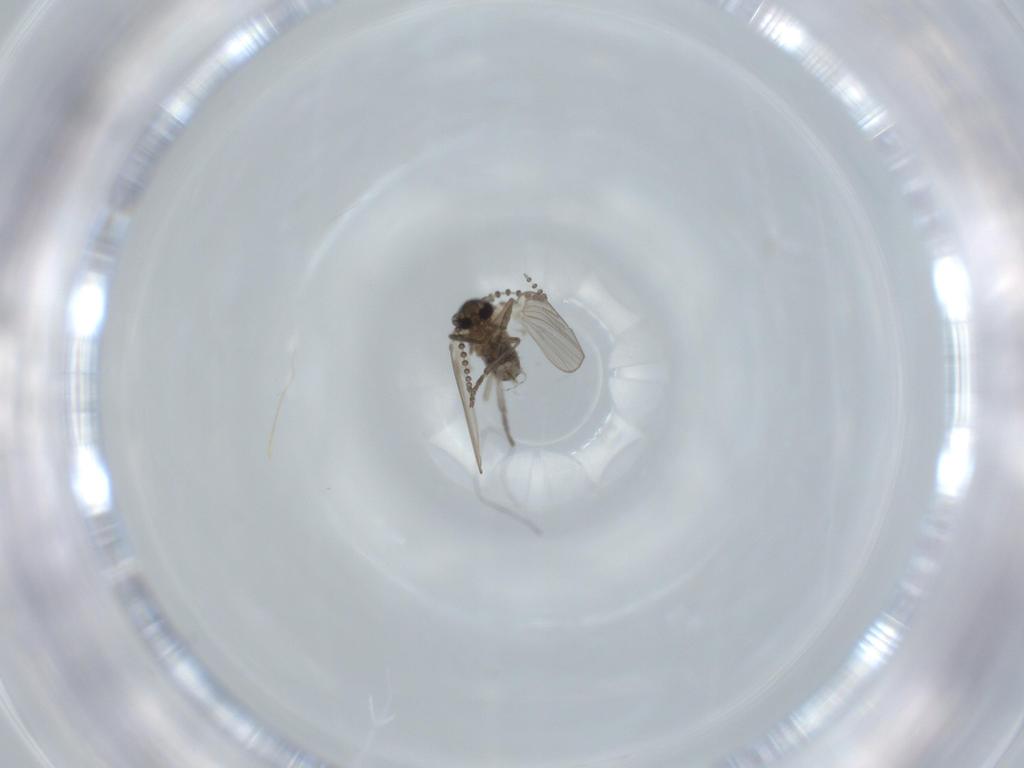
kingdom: Animalia
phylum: Arthropoda
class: Insecta
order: Diptera
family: Psychodidae
